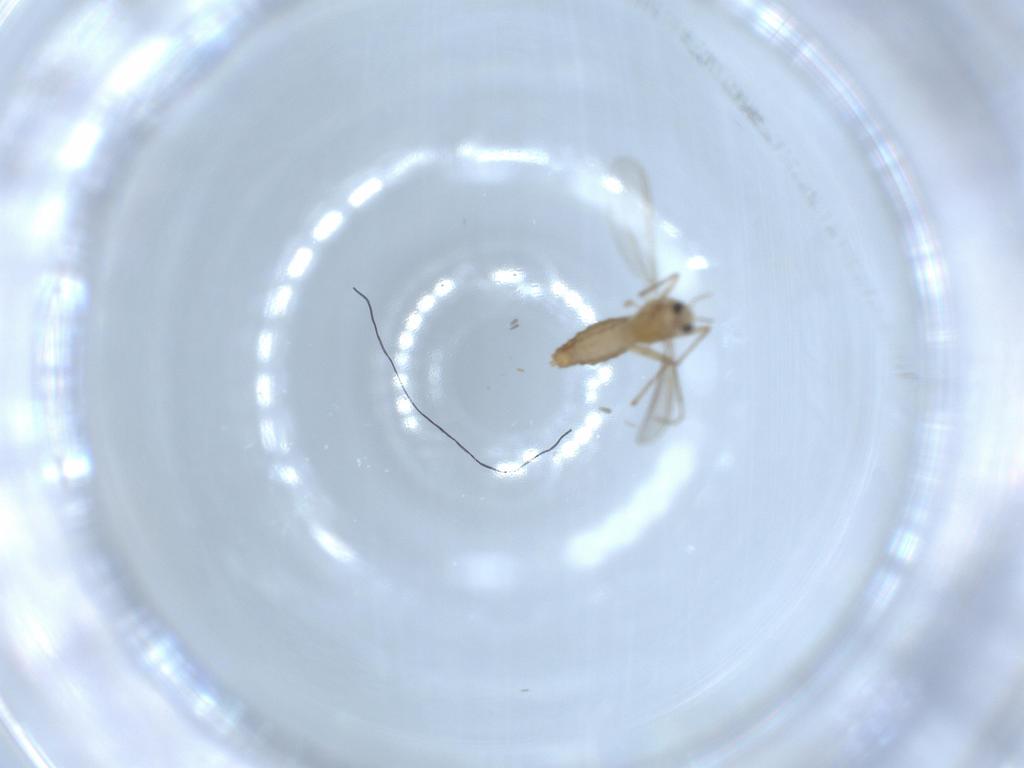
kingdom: Animalia
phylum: Arthropoda
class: Insecta
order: Diptera
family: Chironomidae
